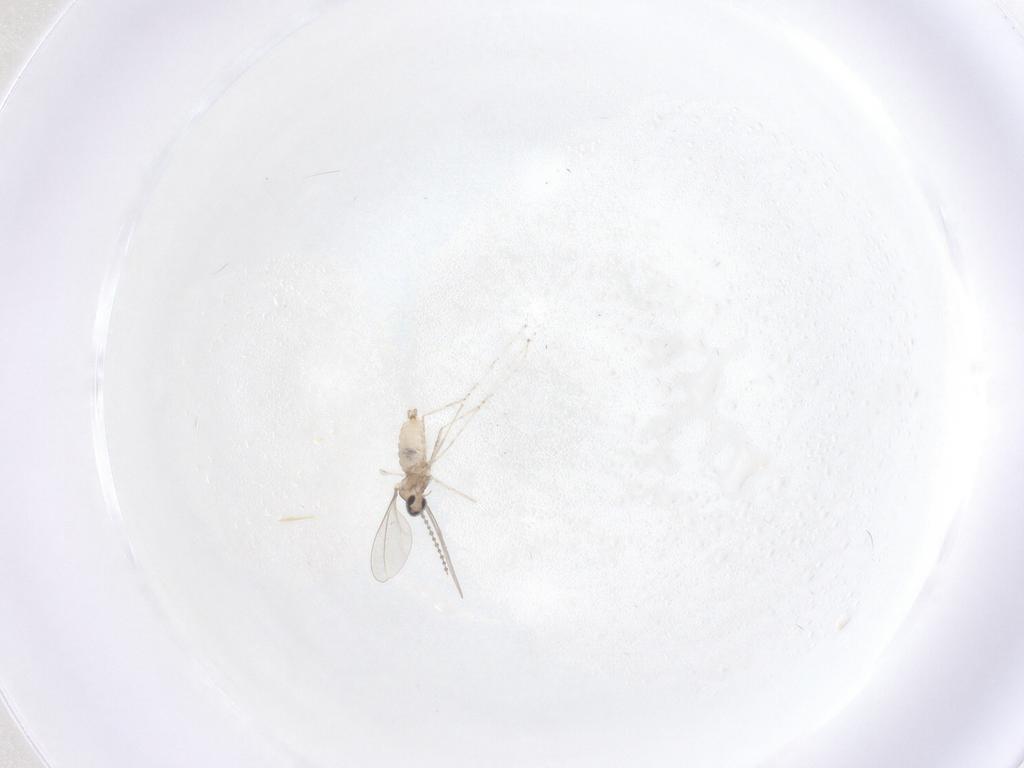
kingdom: Animalia
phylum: Arthropoda
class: Insecta
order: Diptera
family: Cecidomyiidae
